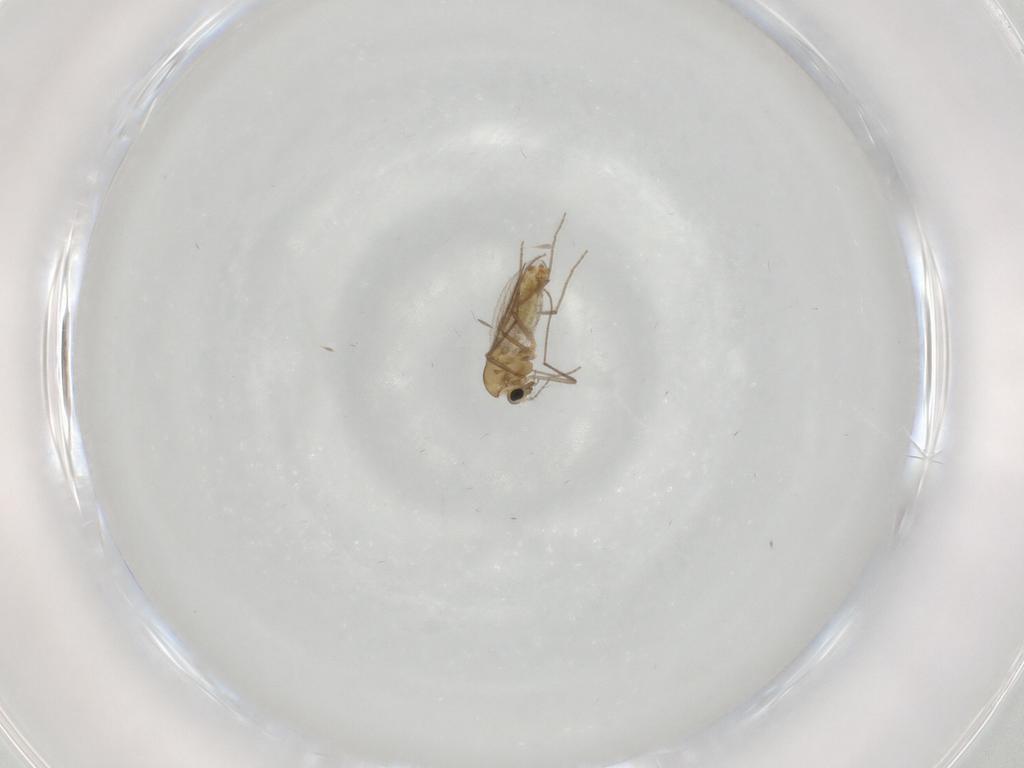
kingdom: Animalia
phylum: Arthropoda
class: Insecta
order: Diptera
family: Chironomidae
